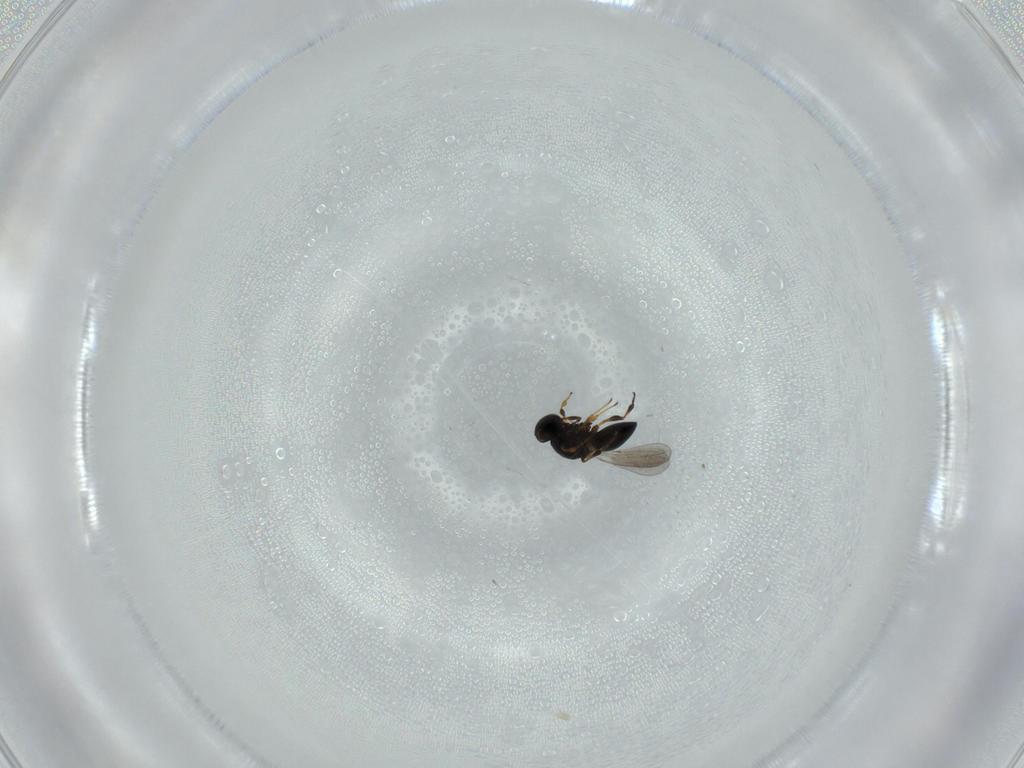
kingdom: Animalia
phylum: Arthropoda
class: Insecta
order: Hymenoptera
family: Platygastridae
